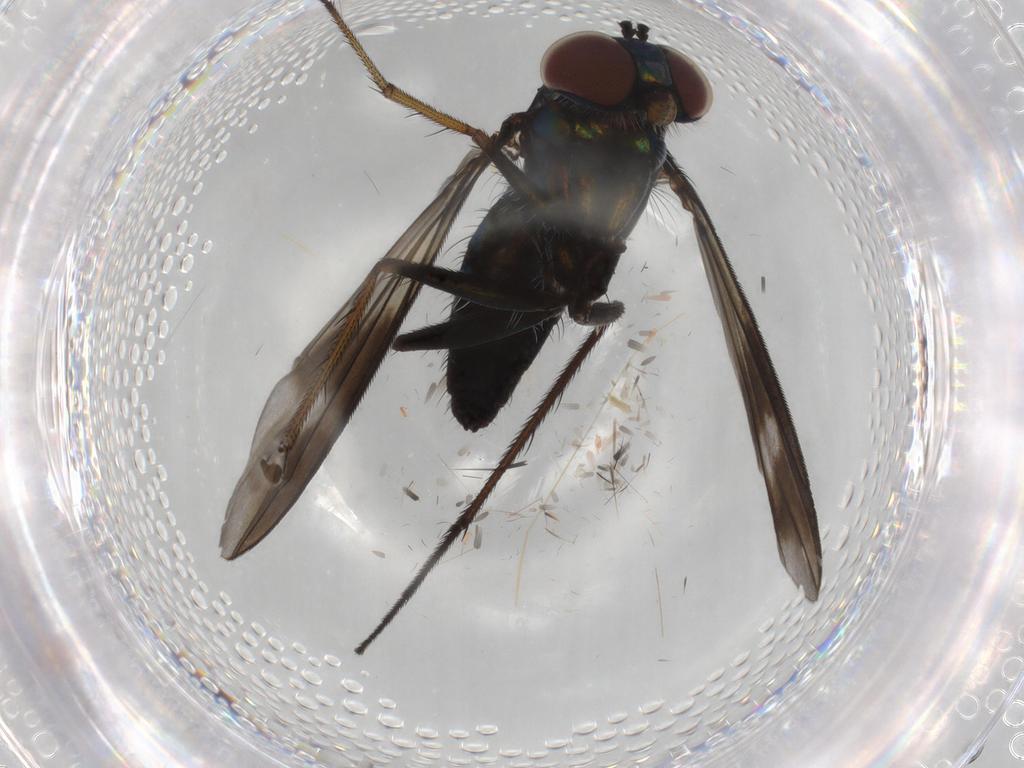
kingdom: Animalia
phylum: Arthropoda
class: Insecta
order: Diptera
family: Dolichopodidae
